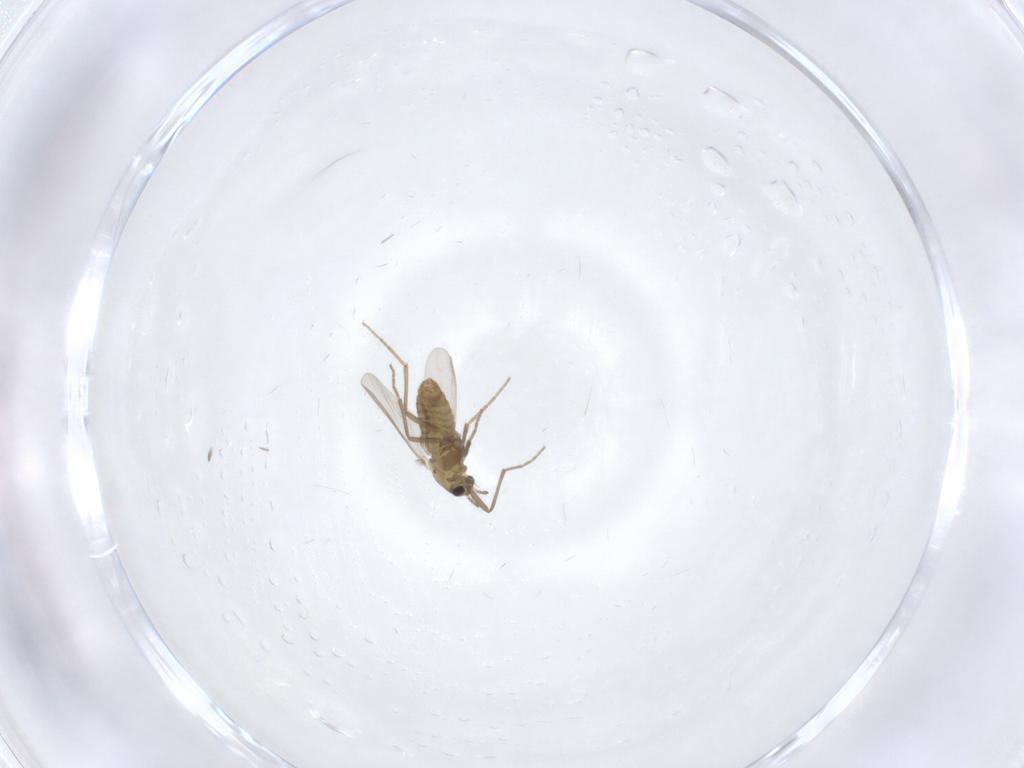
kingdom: Animalia
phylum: Arthropoda
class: Insecta
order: Diptera
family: Chironomidae
